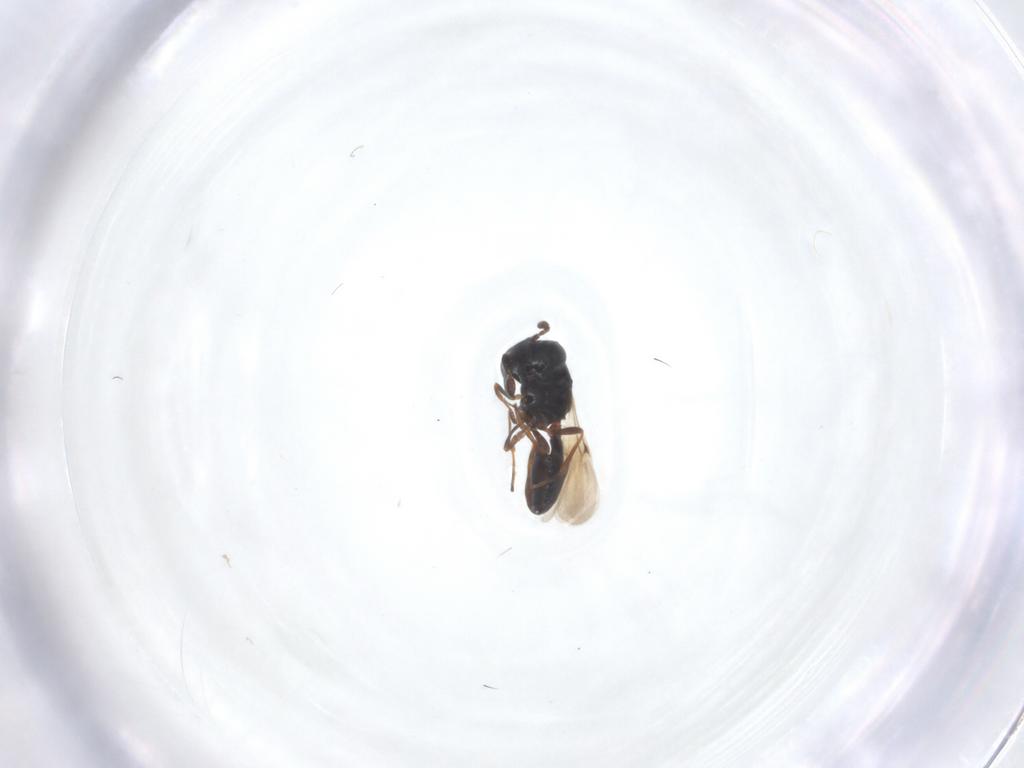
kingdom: Animalia
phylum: Arthropoda
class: Insecta
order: Hymenoptera
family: Scelionidae
